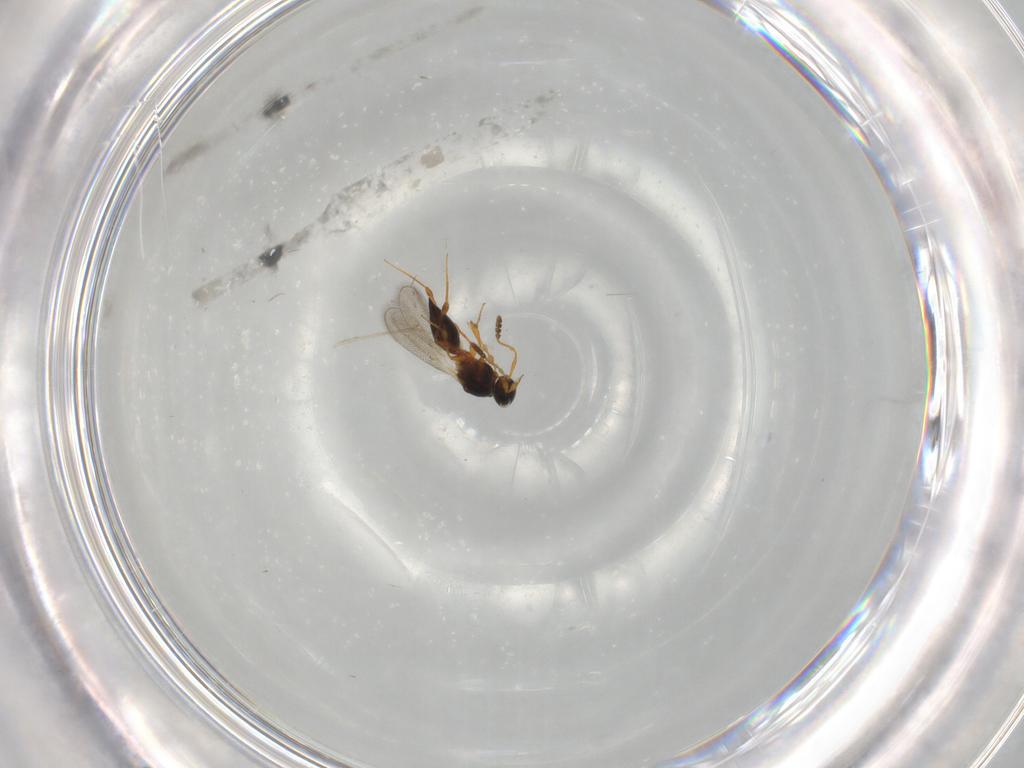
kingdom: Animalia
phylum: Arthropoda
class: Insecta
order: Hymenoptera
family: Platygastridae
